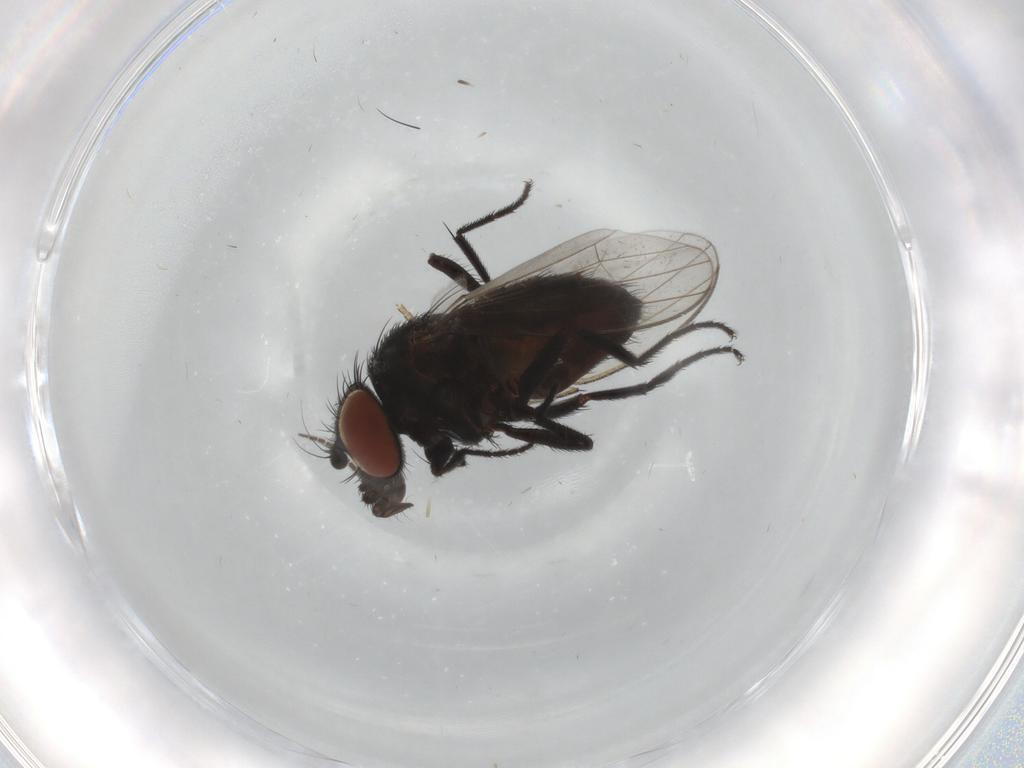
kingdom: Animalia
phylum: Arthropoda
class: Insecta
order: Diptera
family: Milichiidae
